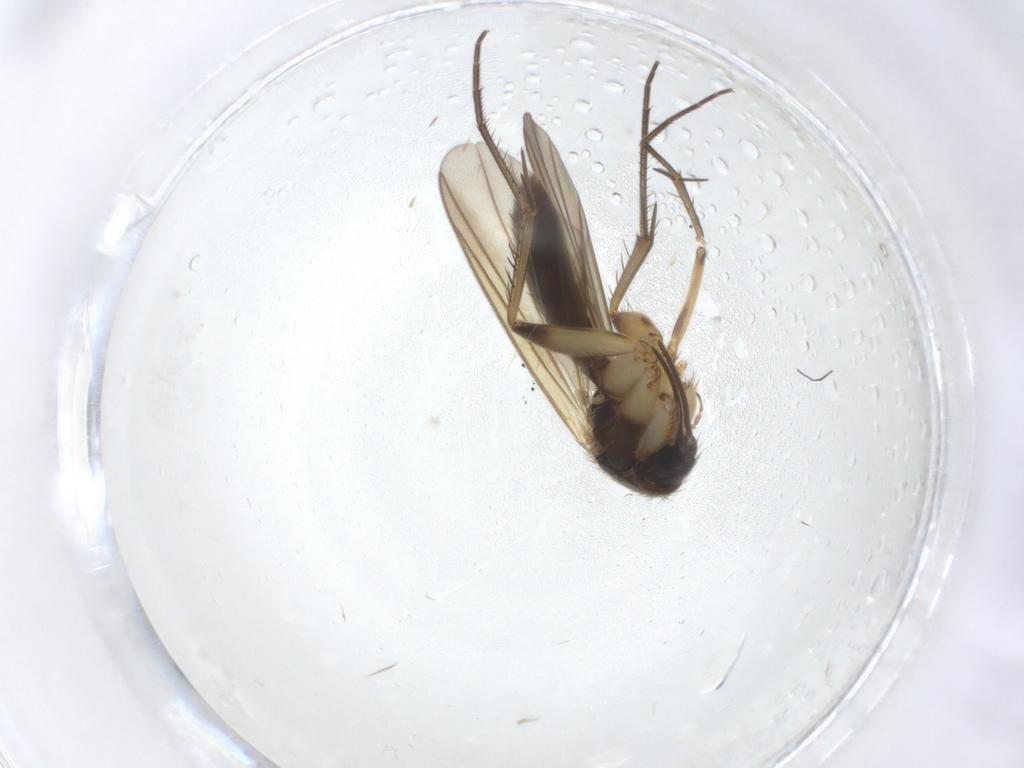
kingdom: Animalia
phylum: Arthropoda
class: Insecta
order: Diptera
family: Mycetophilidae
